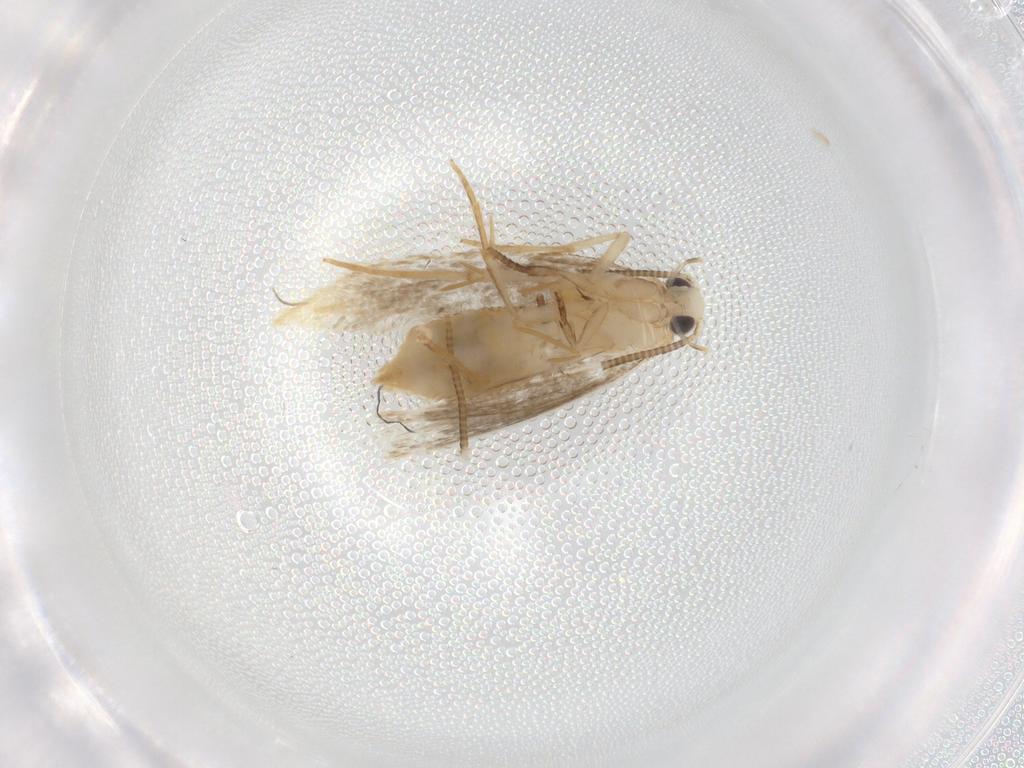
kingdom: Animalia
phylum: Arthropoda
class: Insecta
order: Lepidoptera
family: Tineidae
